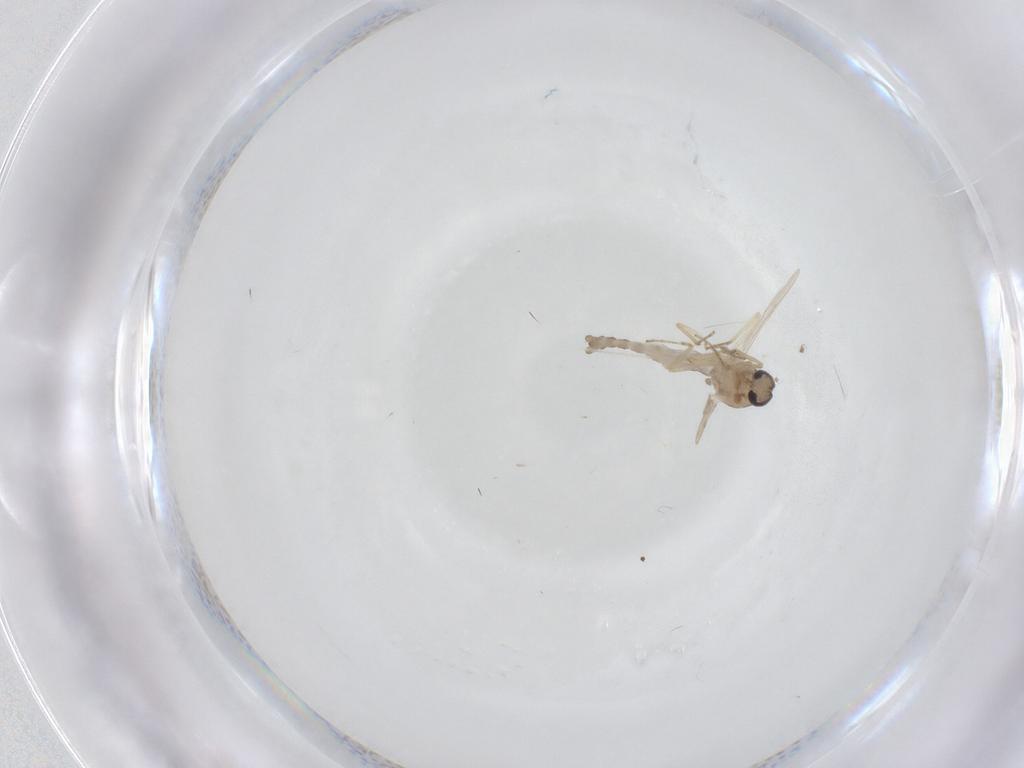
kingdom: Animalia
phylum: Arthropoda
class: Insecta
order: Diptera
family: Ceratopogonidae
